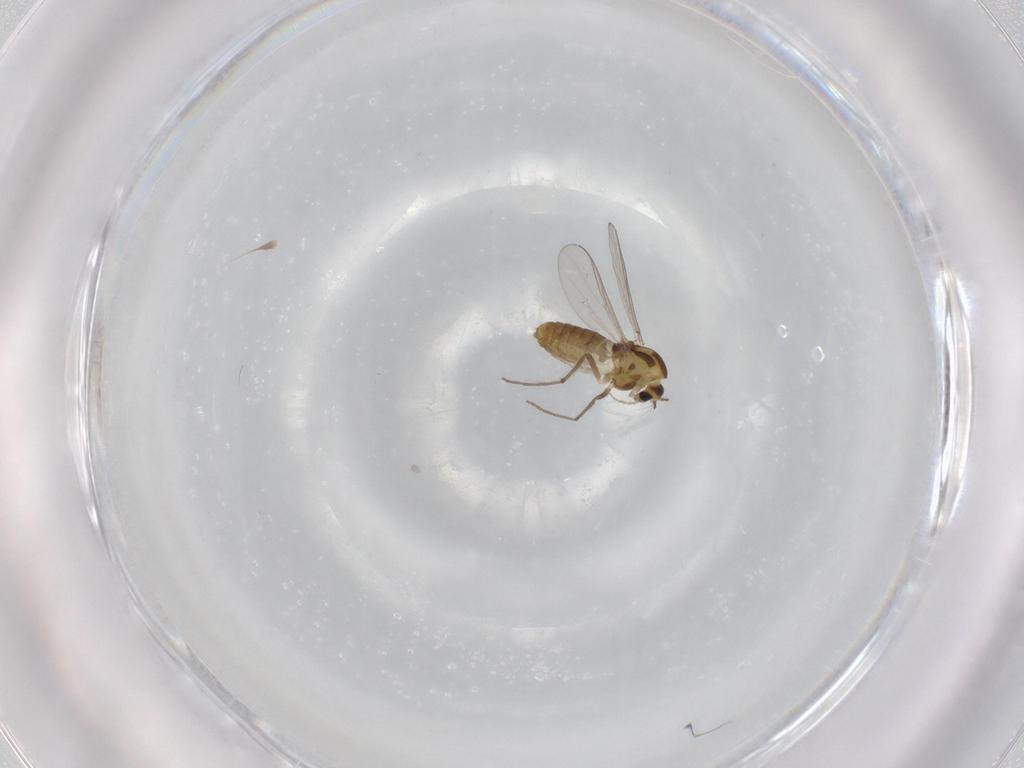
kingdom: Animalia
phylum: Arthropoda
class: Insecta
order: Diptera
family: Chironomidae
